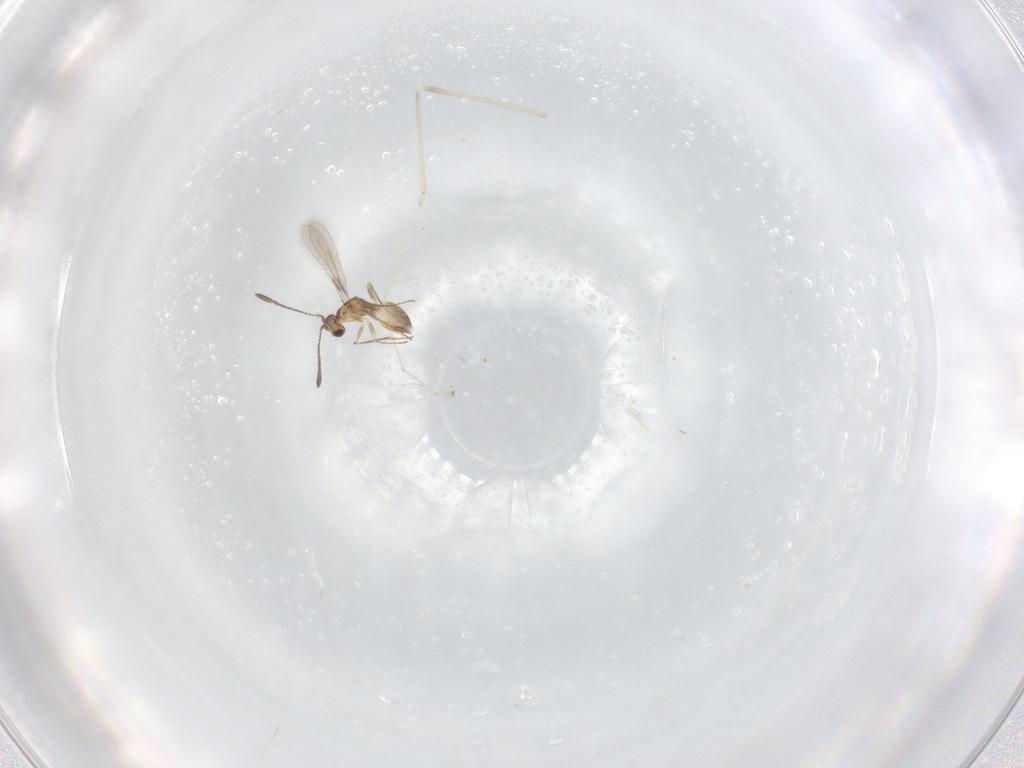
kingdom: Animalia
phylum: Arthropoda
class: Insecta
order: Hymenoptera
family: Mymaridae
